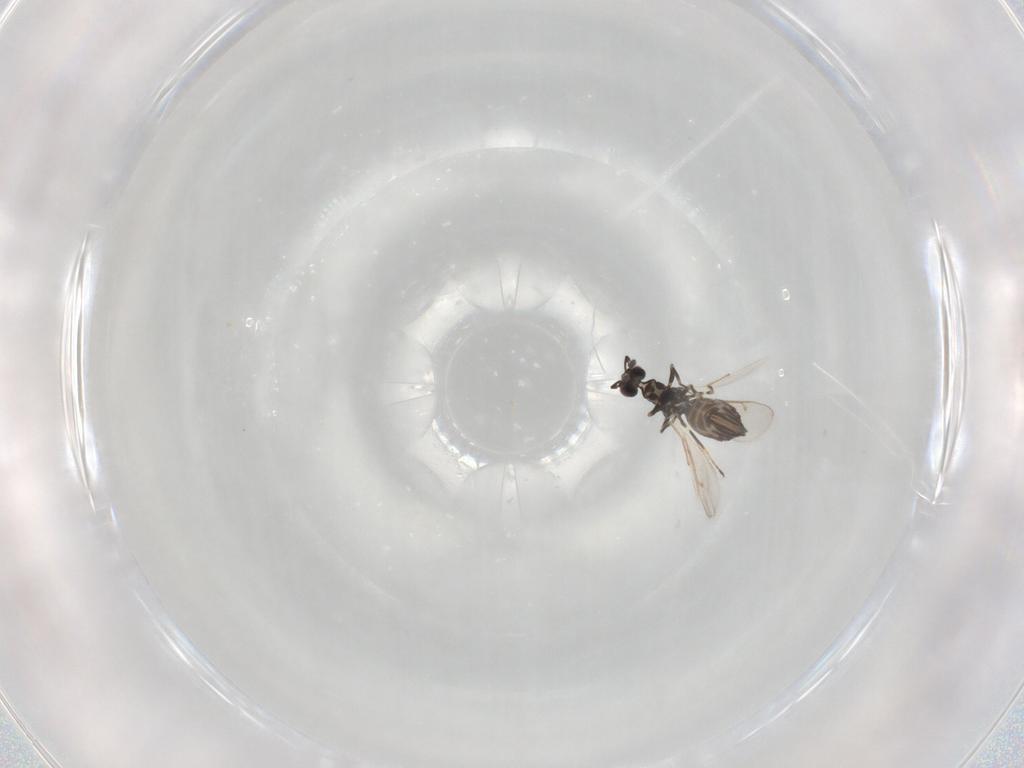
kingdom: Animalia
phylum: Arthropoda
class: Insecta
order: Hymenoptera
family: Eulophidae
